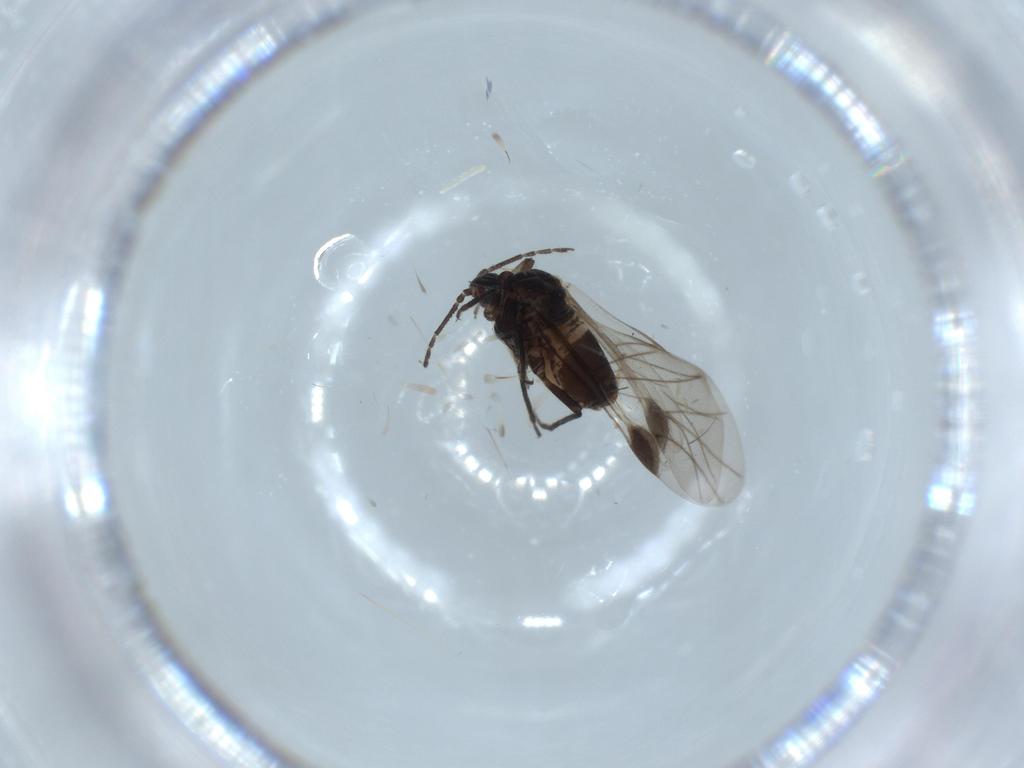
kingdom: Animalia
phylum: Arthropoda
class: Insecta
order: Hemiptera
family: Aphididae
